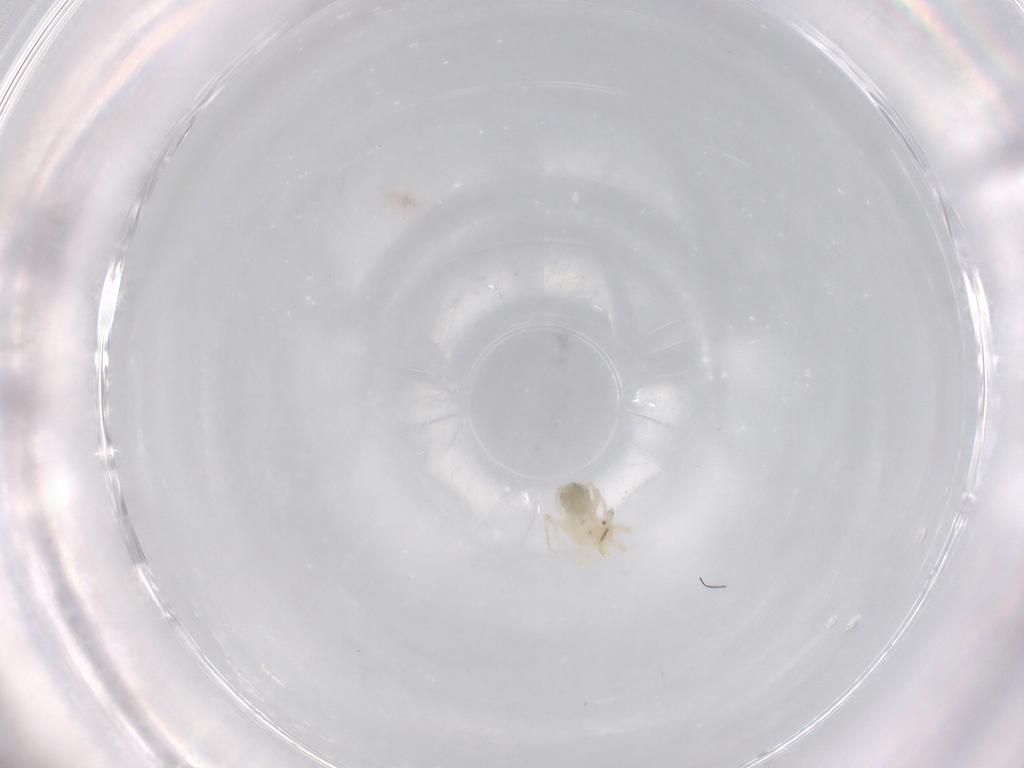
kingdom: Animalia
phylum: Arthropoda
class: Arachnida
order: Trombidiformes
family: Anystidae
